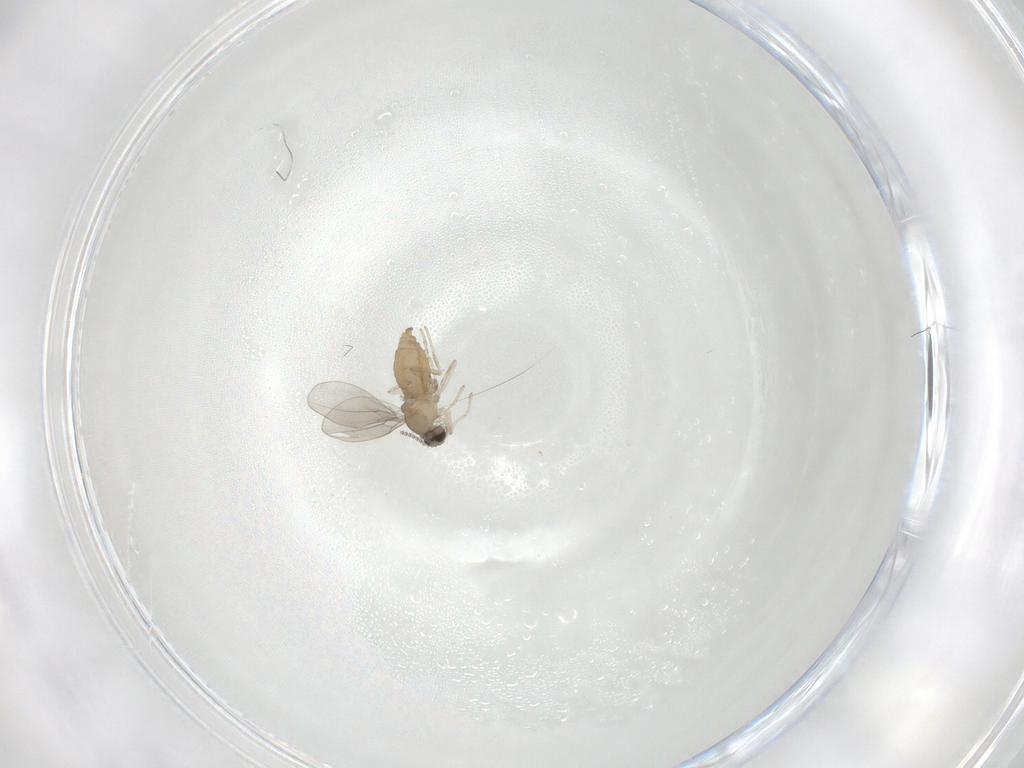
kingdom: Animalia
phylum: Arthropoda
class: Insecta
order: Diptera
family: Cecidomyiidae
